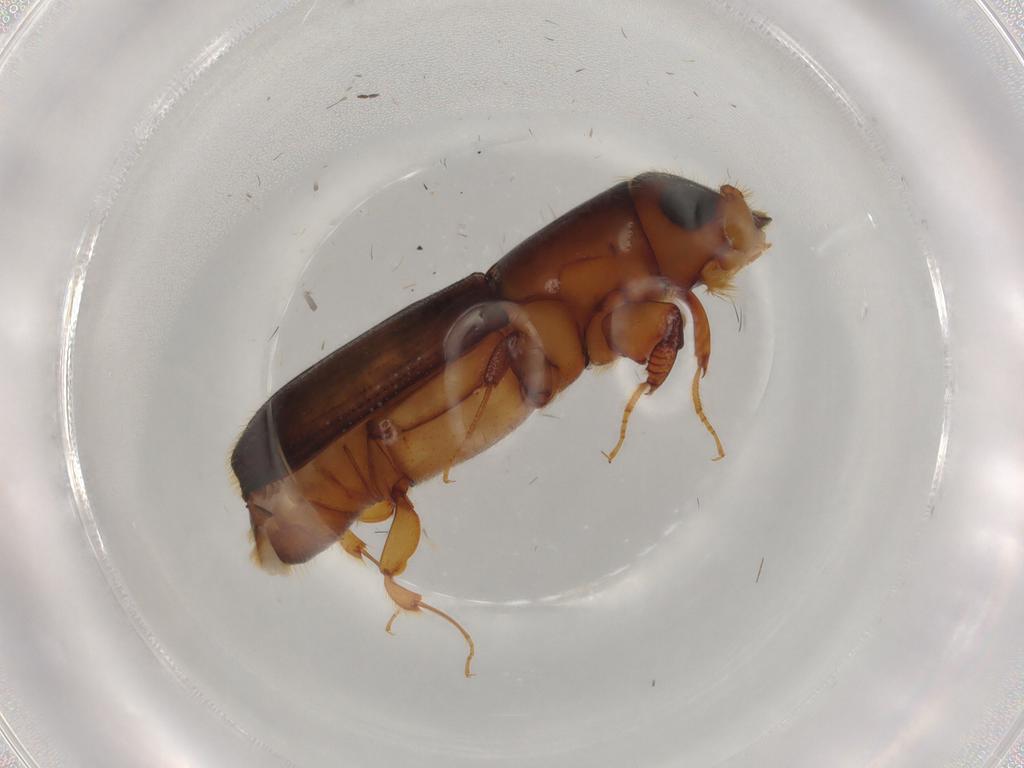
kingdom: Animalia
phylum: Arthropoda
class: Insecta
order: Coleoptera
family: Curculionidae
